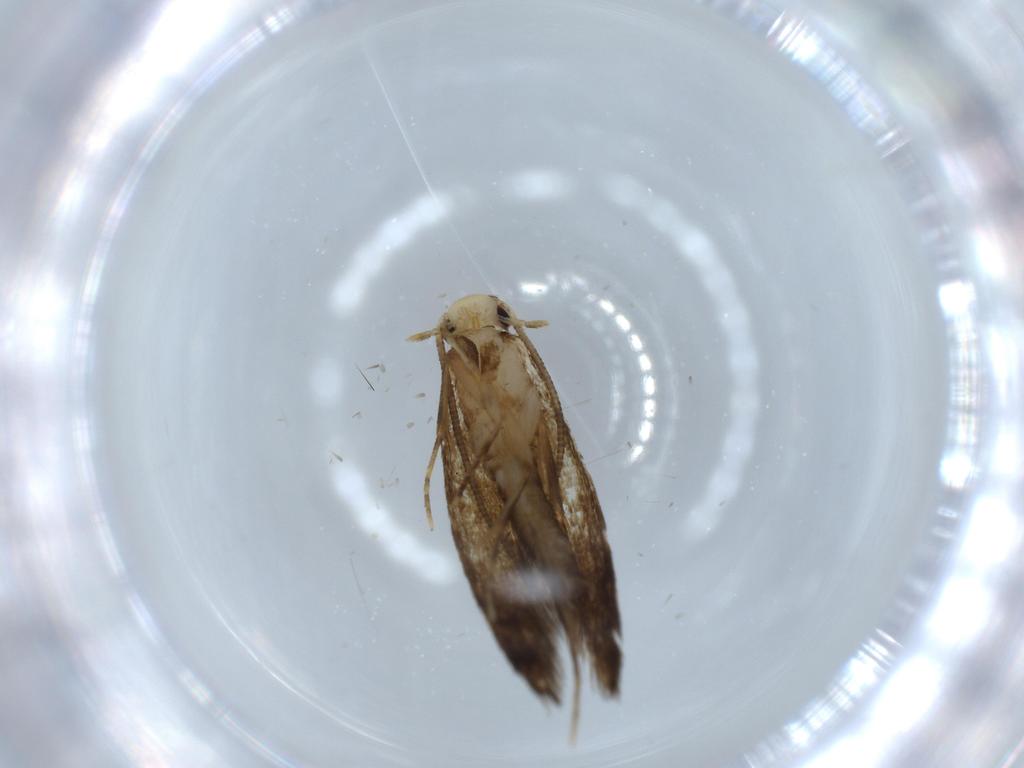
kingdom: Animalia
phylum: Arthropoda
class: Insecta
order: Lepidoptera
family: Tineidae
